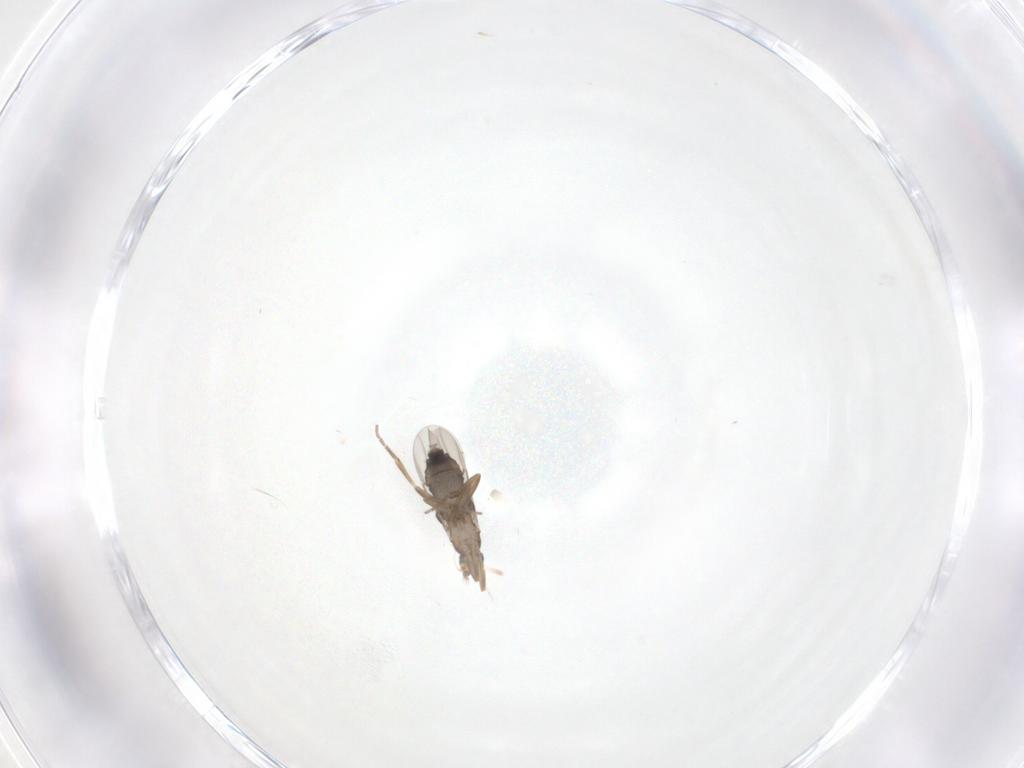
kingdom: Animalia
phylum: Arthropoda
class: Insecta
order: Diptera
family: Phoridae
